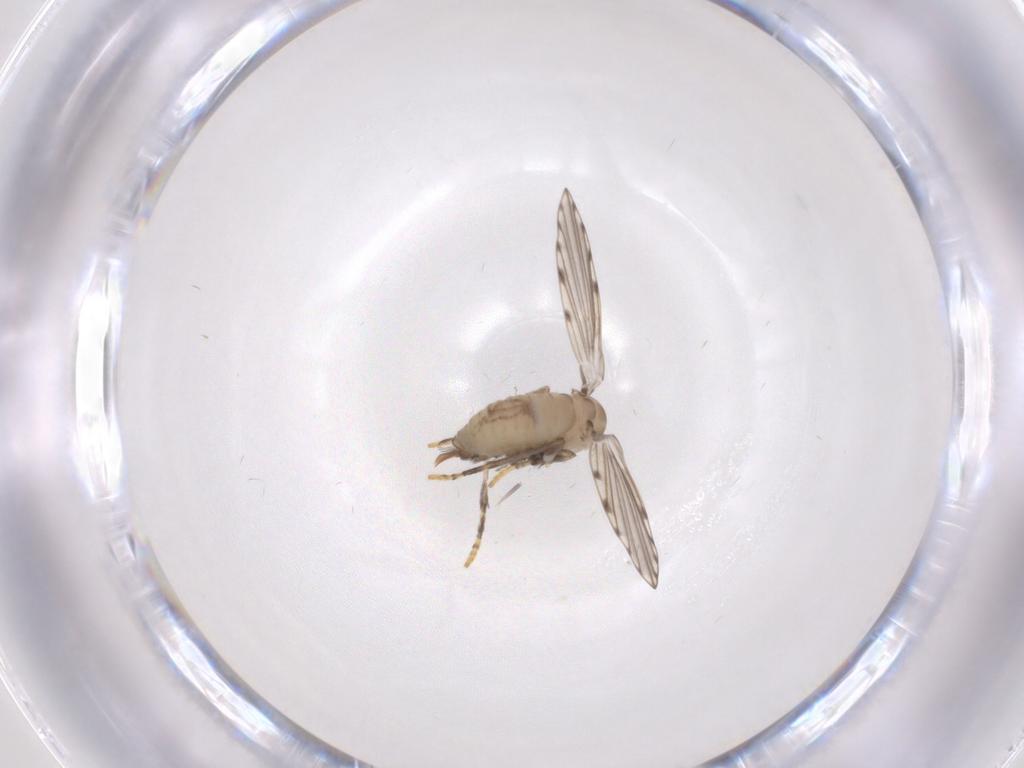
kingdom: Animalia
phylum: Arthropoda
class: Insecta
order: Diptera
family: Psychodidae
